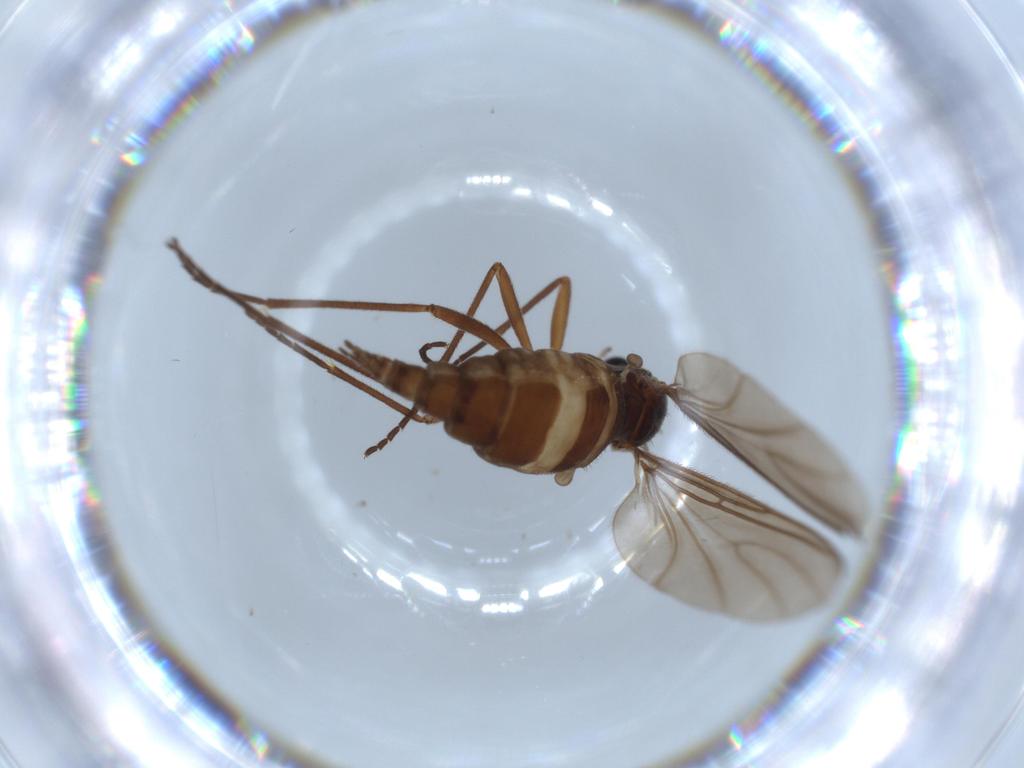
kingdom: Animalia
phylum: Arthropoda
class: Insecta
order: Diptera
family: Sciaridae
